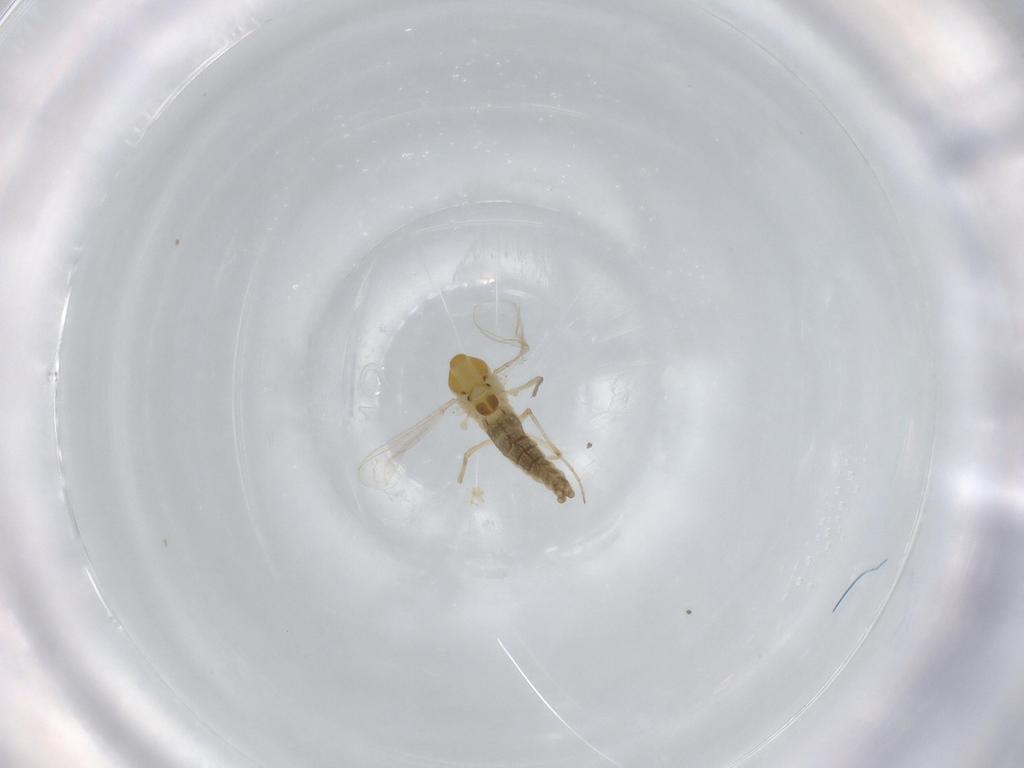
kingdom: Animalia
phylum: Arthropoda
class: Insecta
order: Diptera
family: Chironomidae
